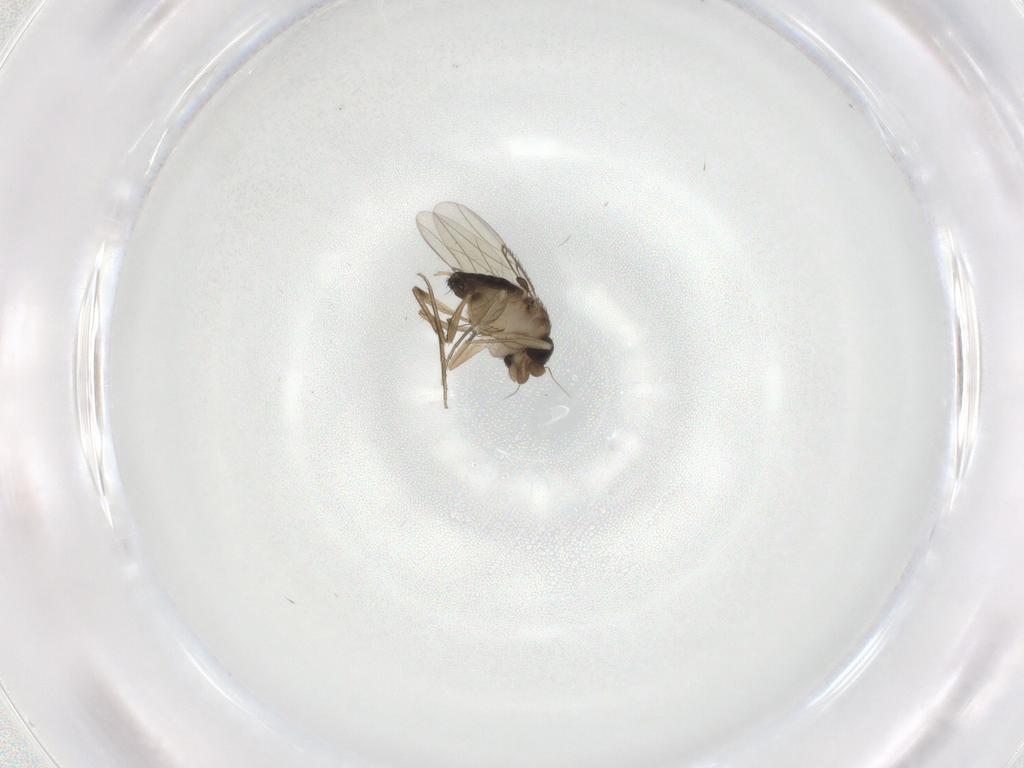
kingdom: Animalia
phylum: Arthropoda
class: Insecta
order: Diptera
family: Phoridae
